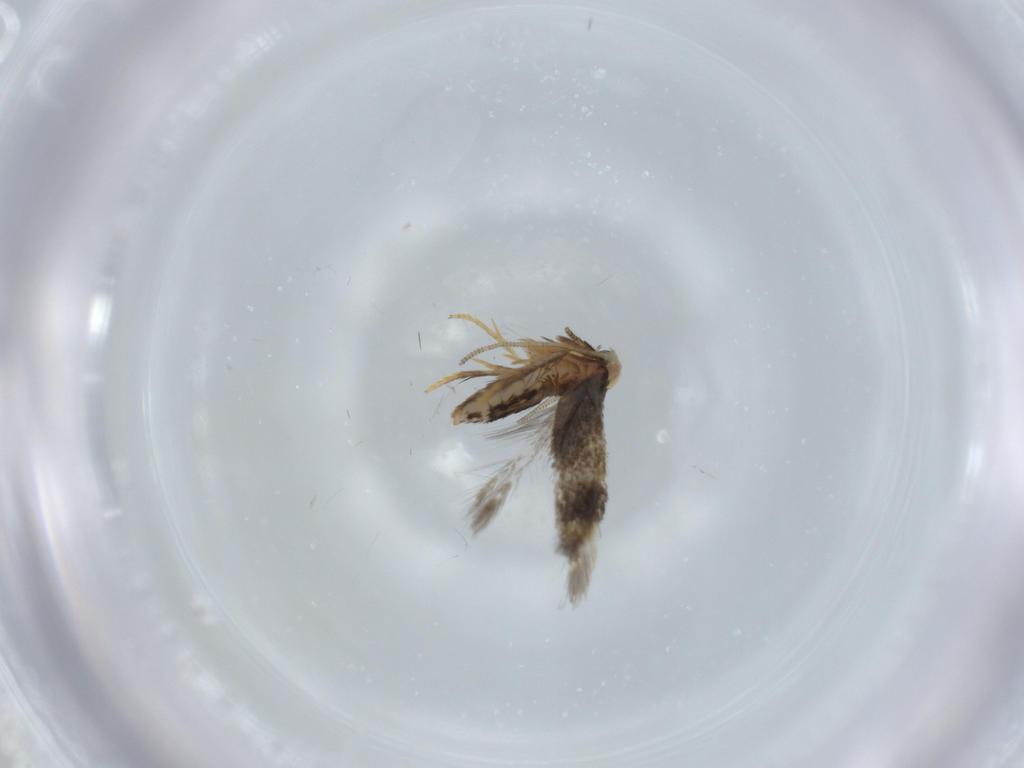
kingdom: Animalia
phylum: Arthropoda
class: Insecta
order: Lepidoptera
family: Nepticulidae
